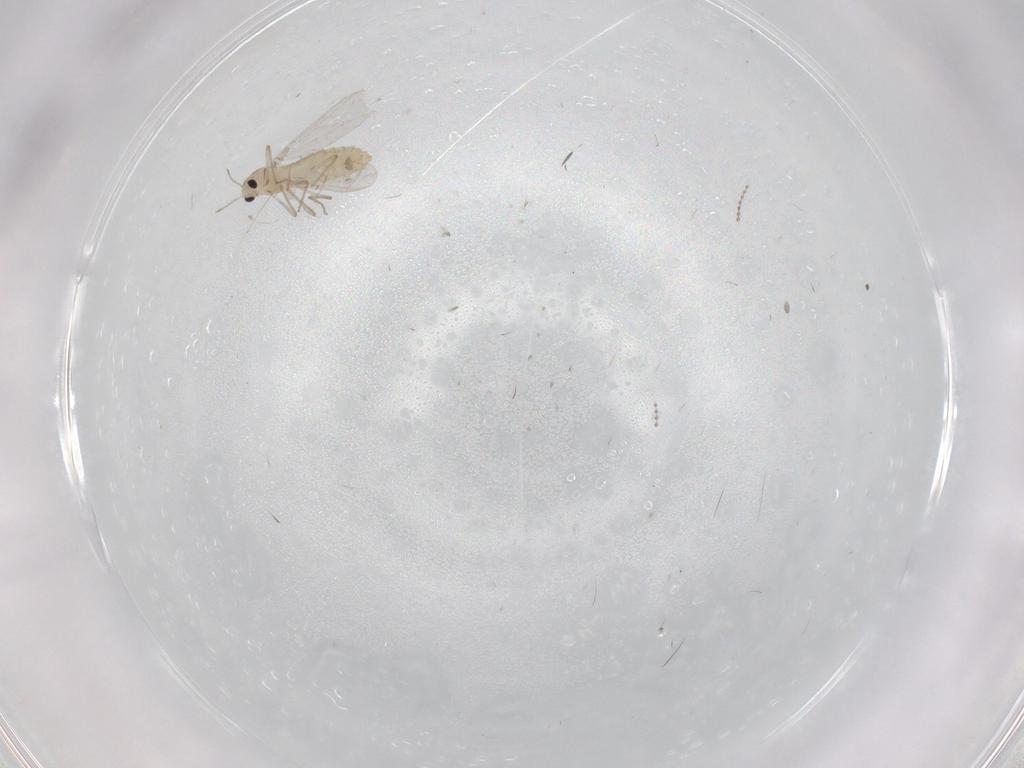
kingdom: Animalia
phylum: Arthropoda
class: Insecta
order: Diptera
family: Chironomidae
